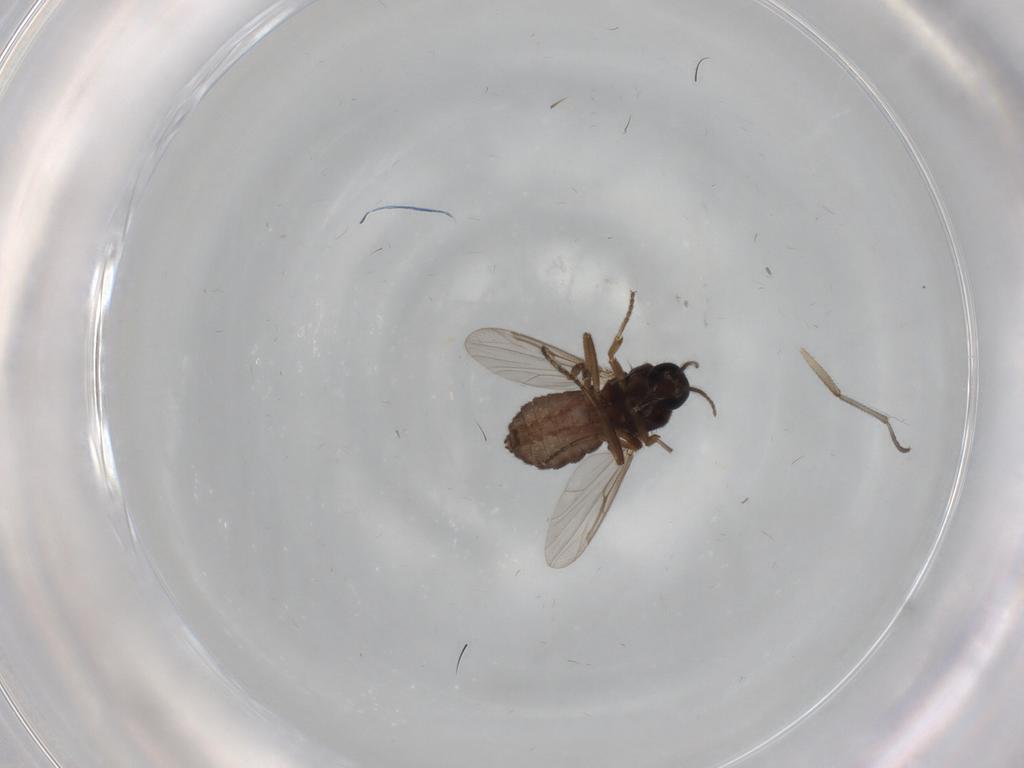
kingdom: Animalia
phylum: Arthropoda
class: Insecta
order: Diptera
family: Ceratopogonidae
